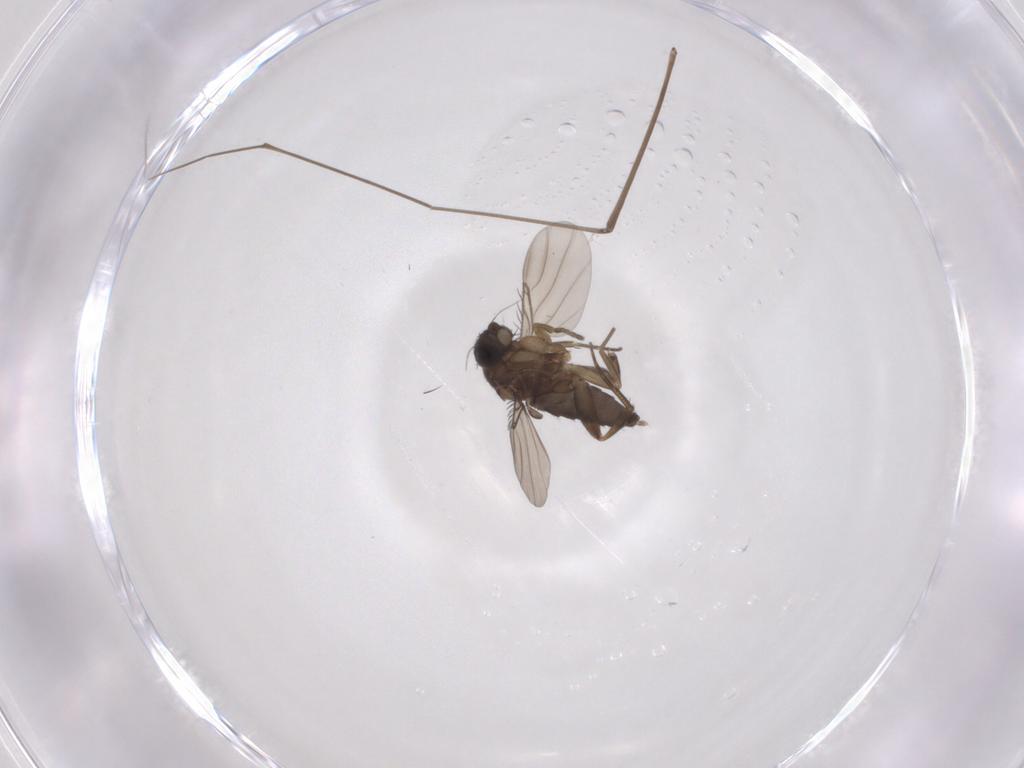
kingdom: Animalia
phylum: Arthropoda
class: Insecta
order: Diptera
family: Phoridae
